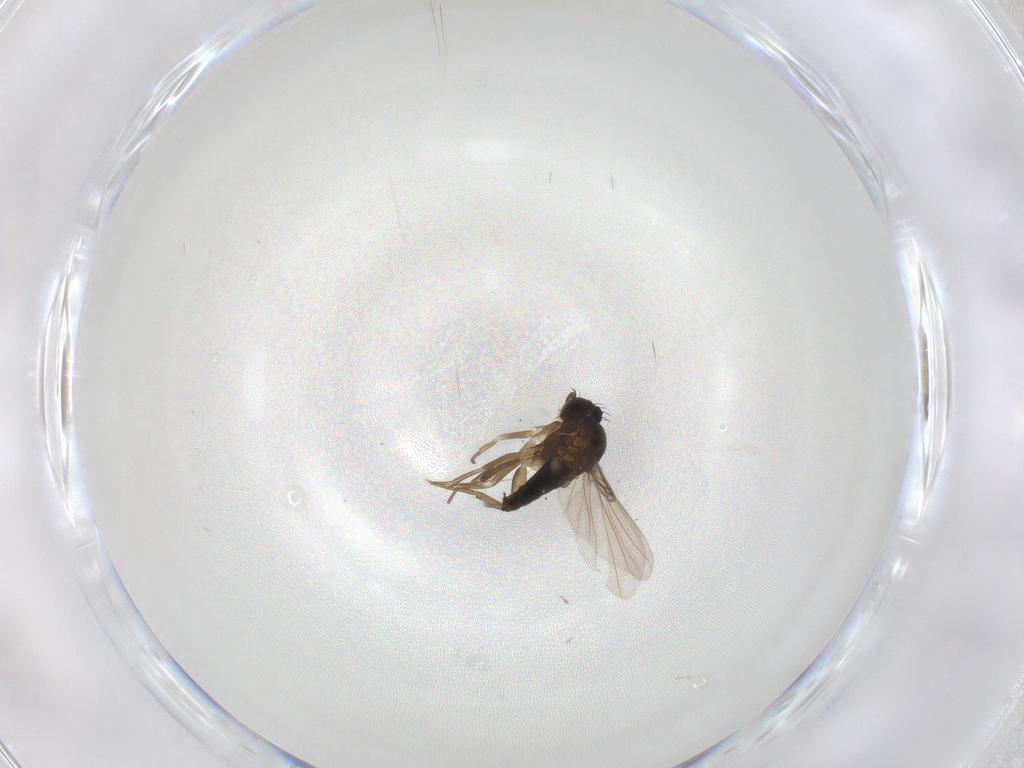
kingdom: Animalia
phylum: Arthropoda
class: Insecta
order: Diptera
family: Phoridae
